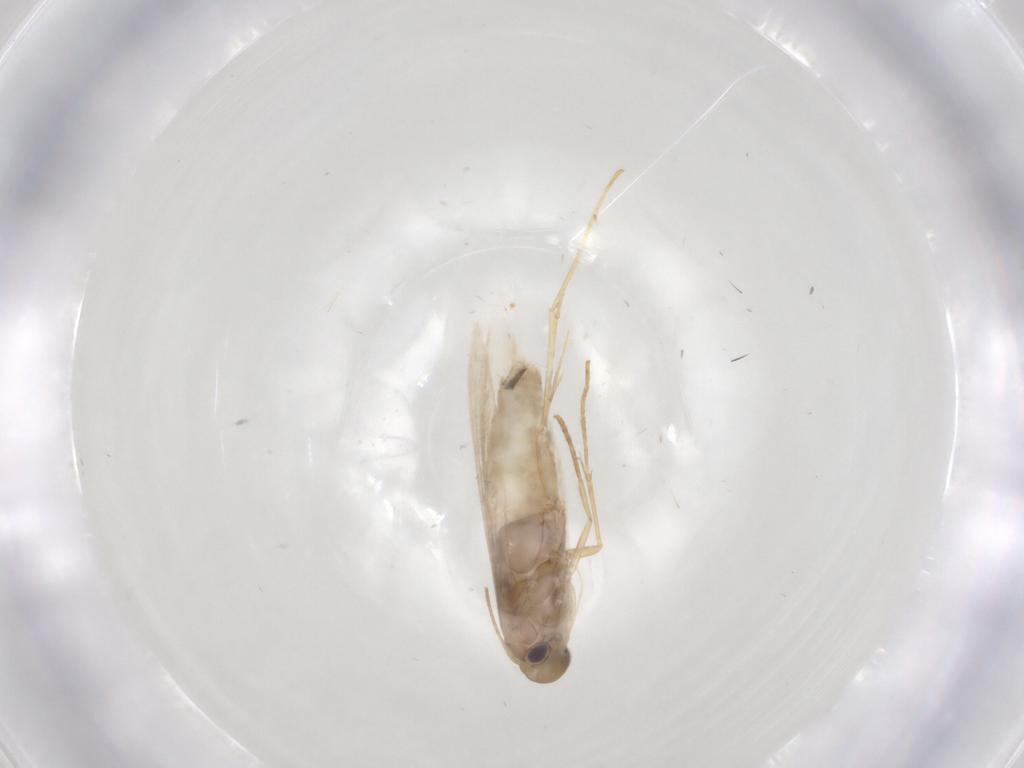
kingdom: Animalia
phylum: Arthropoda
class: Insecta
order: Lepidoptera
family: Gracillariidae
